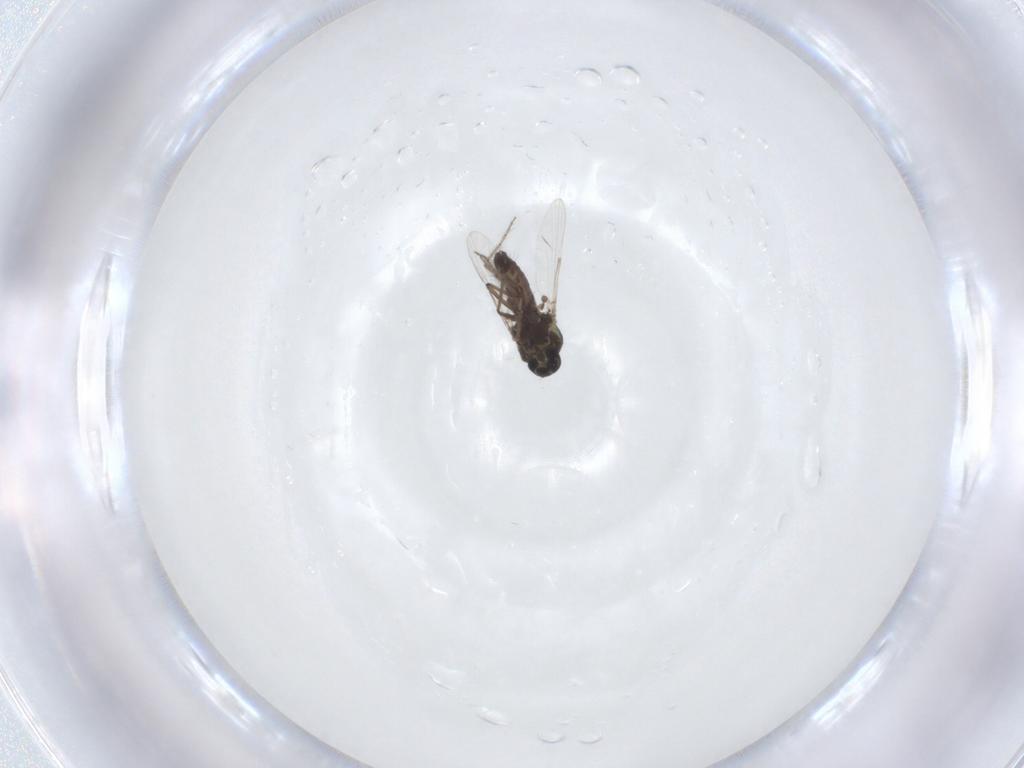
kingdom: Animalia
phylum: Arthropoda
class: Insecta
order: Diptera
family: Ceratopogonidae
